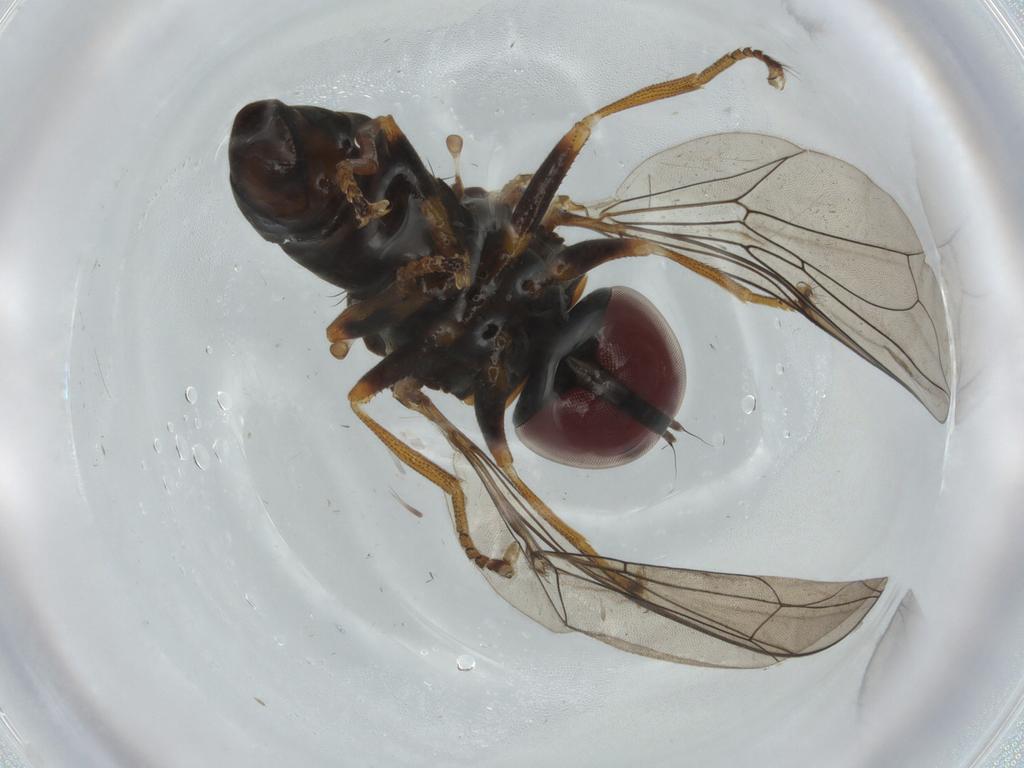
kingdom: Animalia
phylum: Arthropoda
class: Insecta
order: Diptera
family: Pipunculidae
